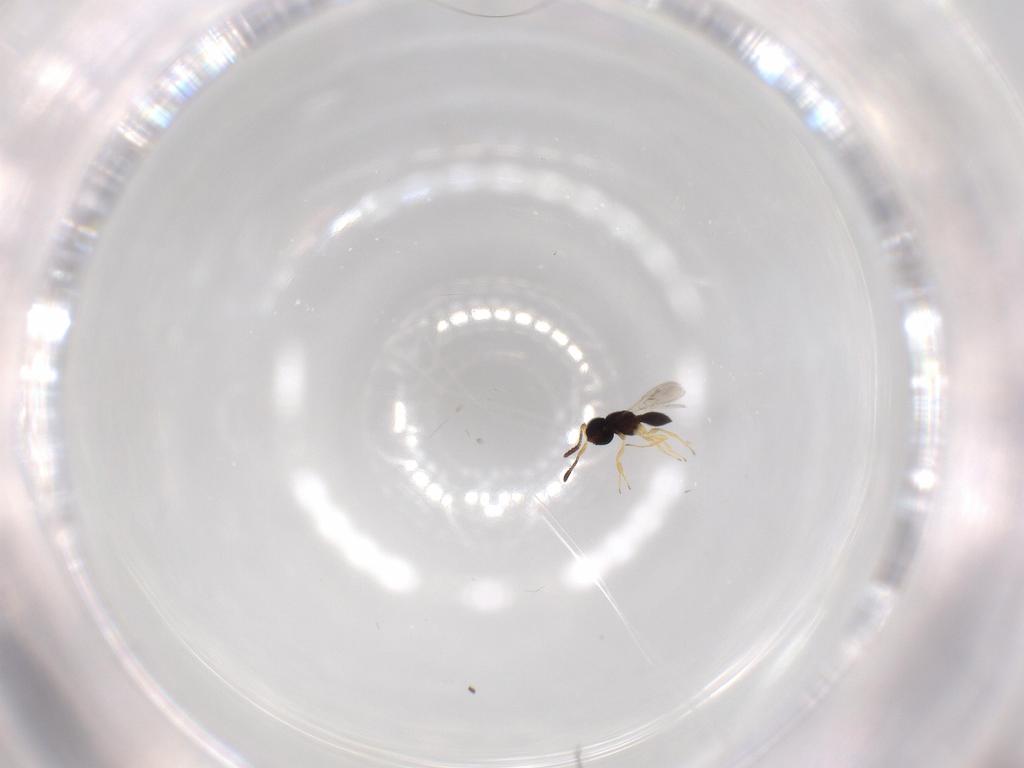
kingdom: Animalia
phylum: Arthropoda
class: Insecta
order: Hymenoptera
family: Scelionidae
